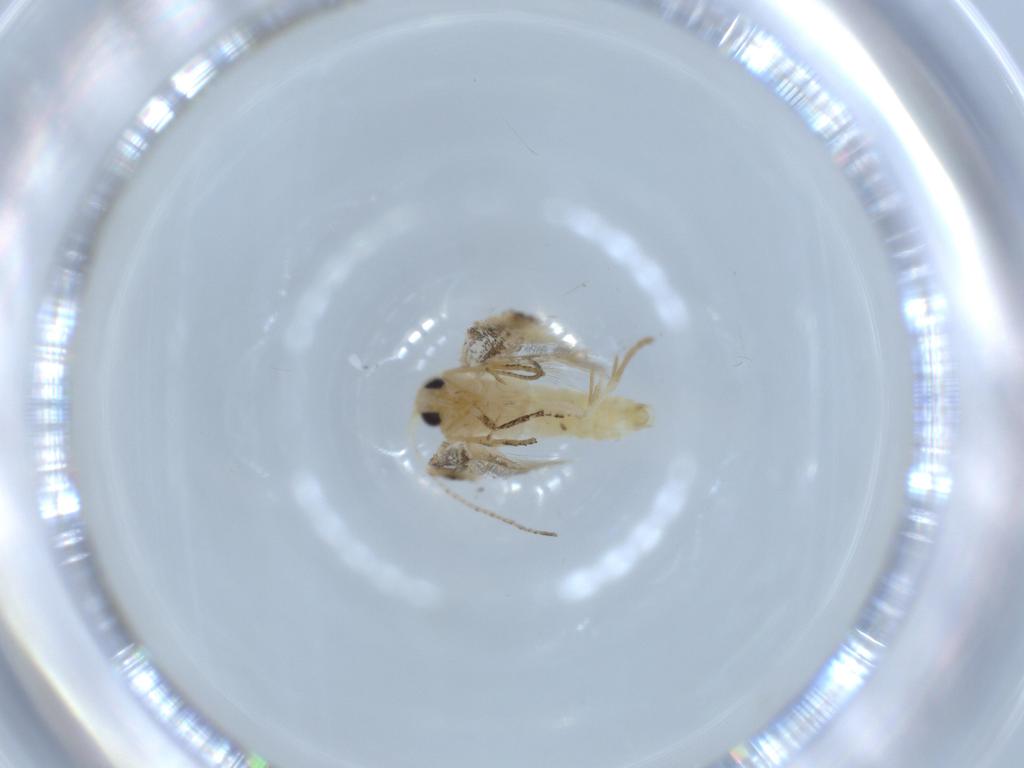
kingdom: Animalia
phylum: Arthropoda
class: Insecta
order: Lepidoptera
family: Bucculatricidae
